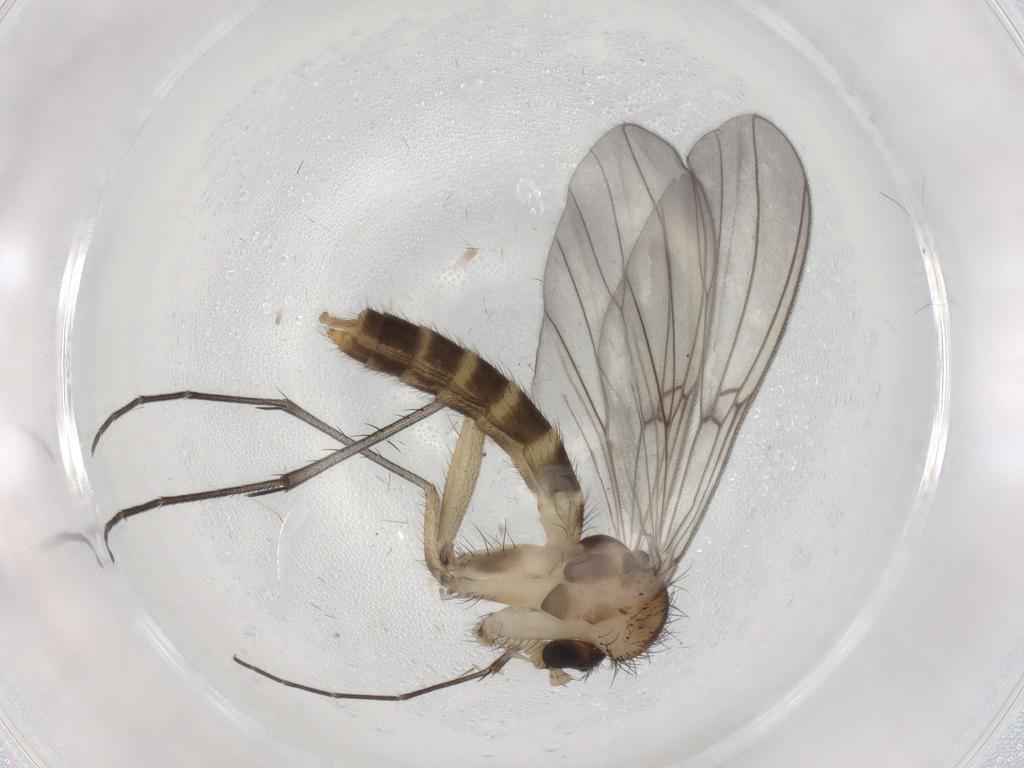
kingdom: Animalia
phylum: Arthropoda
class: Insecta
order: Diptera
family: Mycetophilidae
